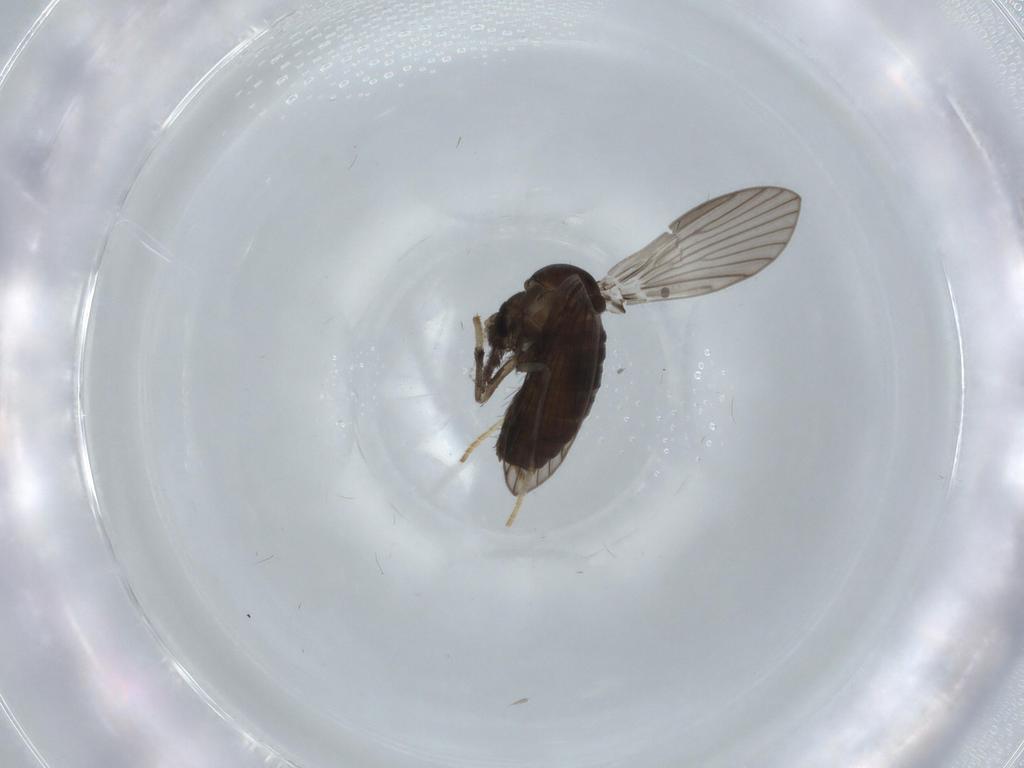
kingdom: Animalia
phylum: Arthropoda
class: Insecta
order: Diptera
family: Psychodidae
